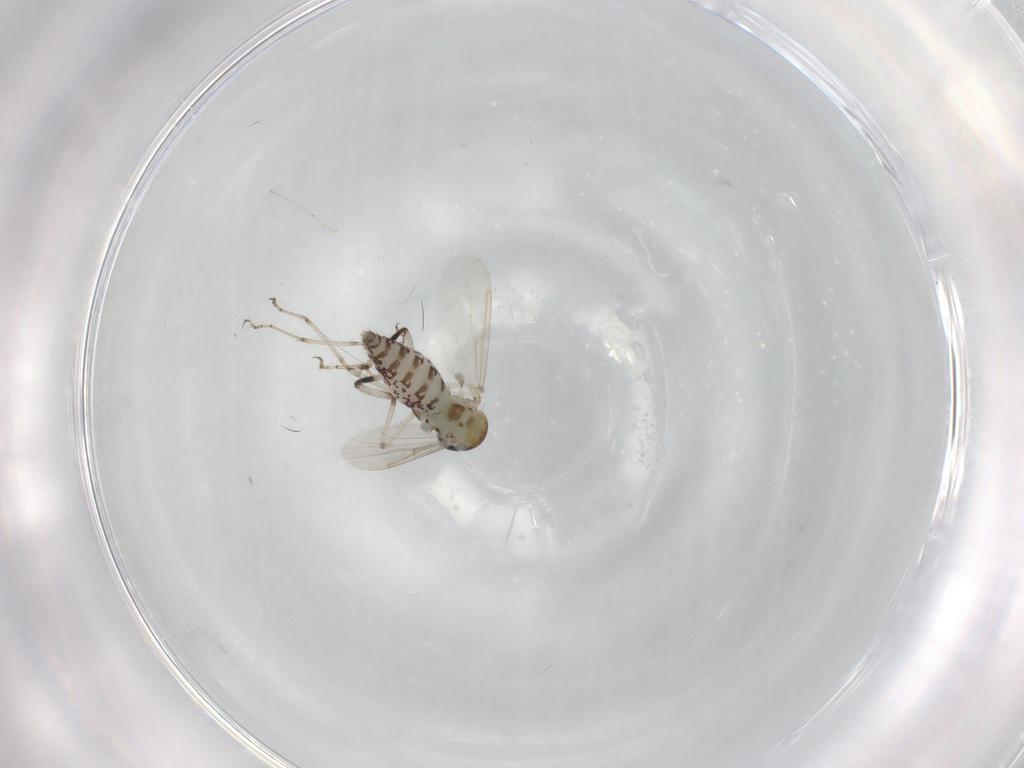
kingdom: Animalia
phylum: Arthropoda
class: Insecta
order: Diptera
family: Ceratopogonidae
